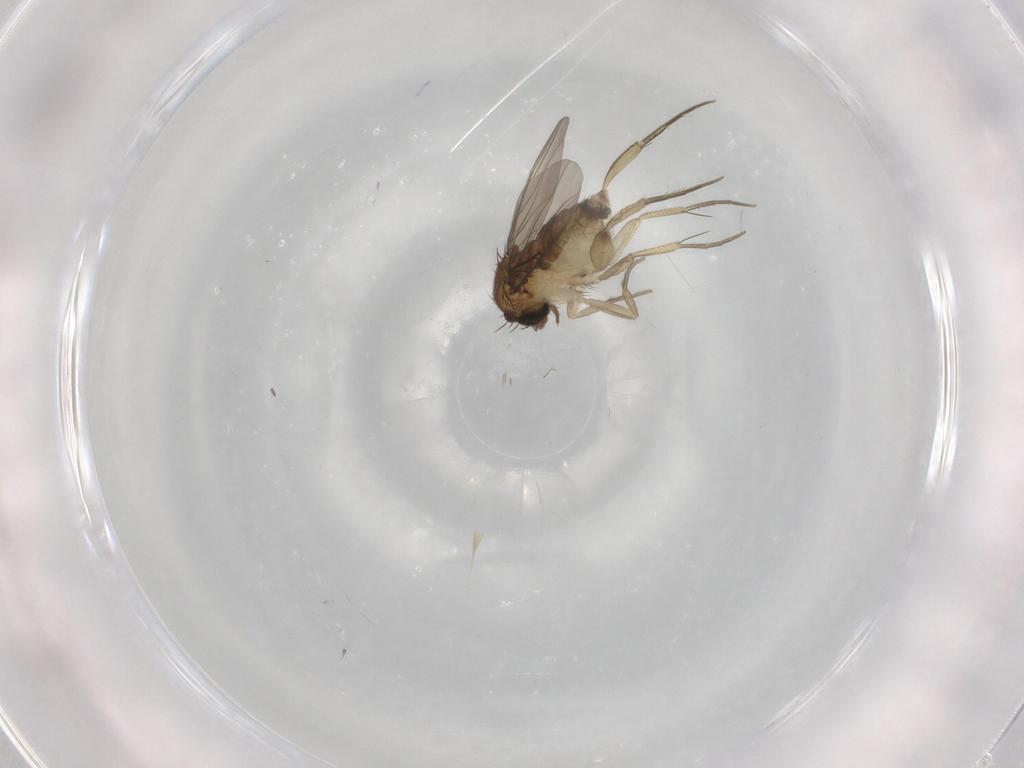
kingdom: Animalia
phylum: Arthropoda
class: Insecta
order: Diptera
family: Phoridae
